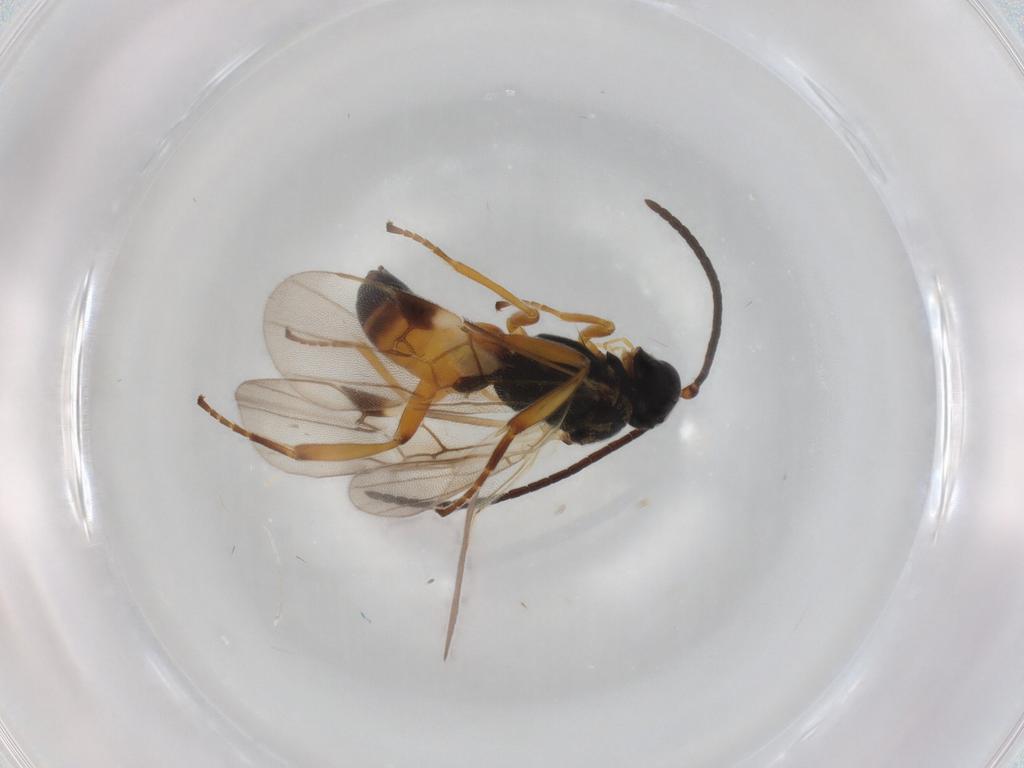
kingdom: Animalia
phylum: Arthropoda
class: Insecta
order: Hymenoptera
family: Braconidae
